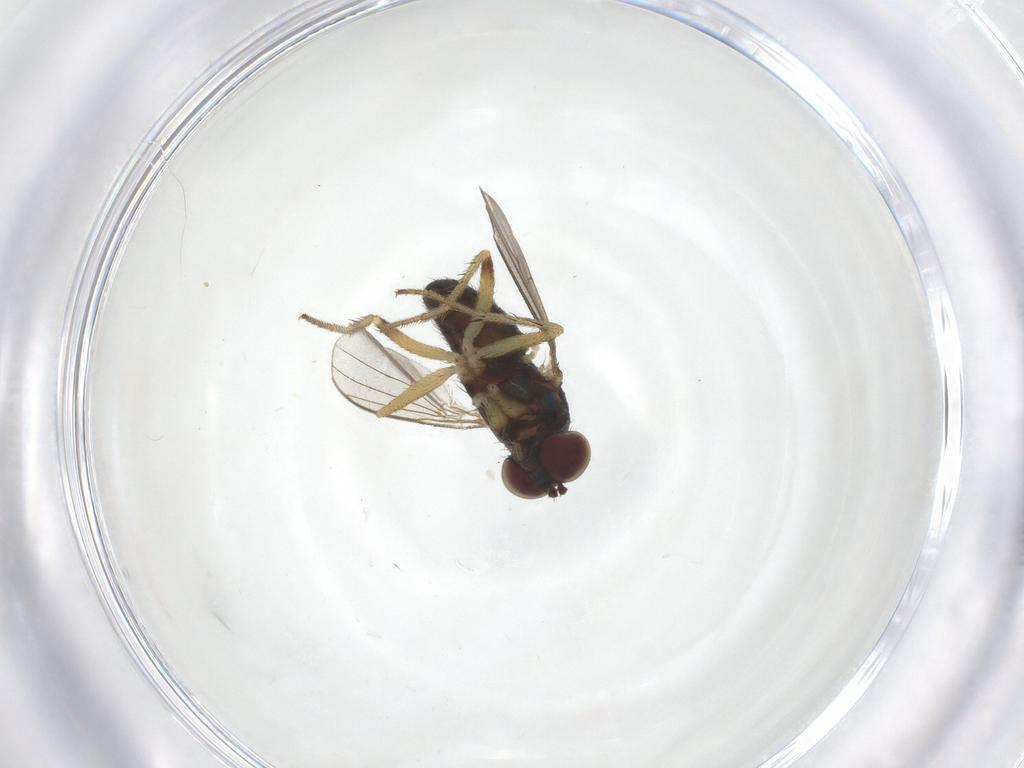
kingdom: Animalia
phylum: Arthropoda
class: Insecta
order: Diptera
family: Dolichopodidae
